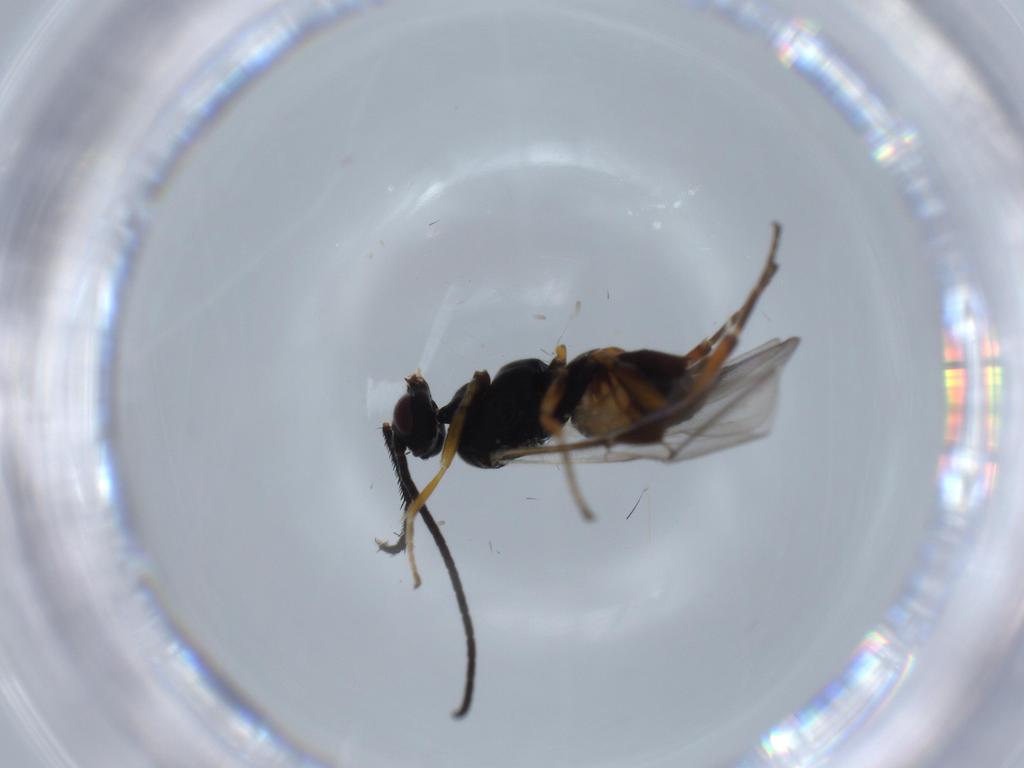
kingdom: Animalia
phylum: Arthropoda
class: Insecta
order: Hymenoptera
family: Braconidae
